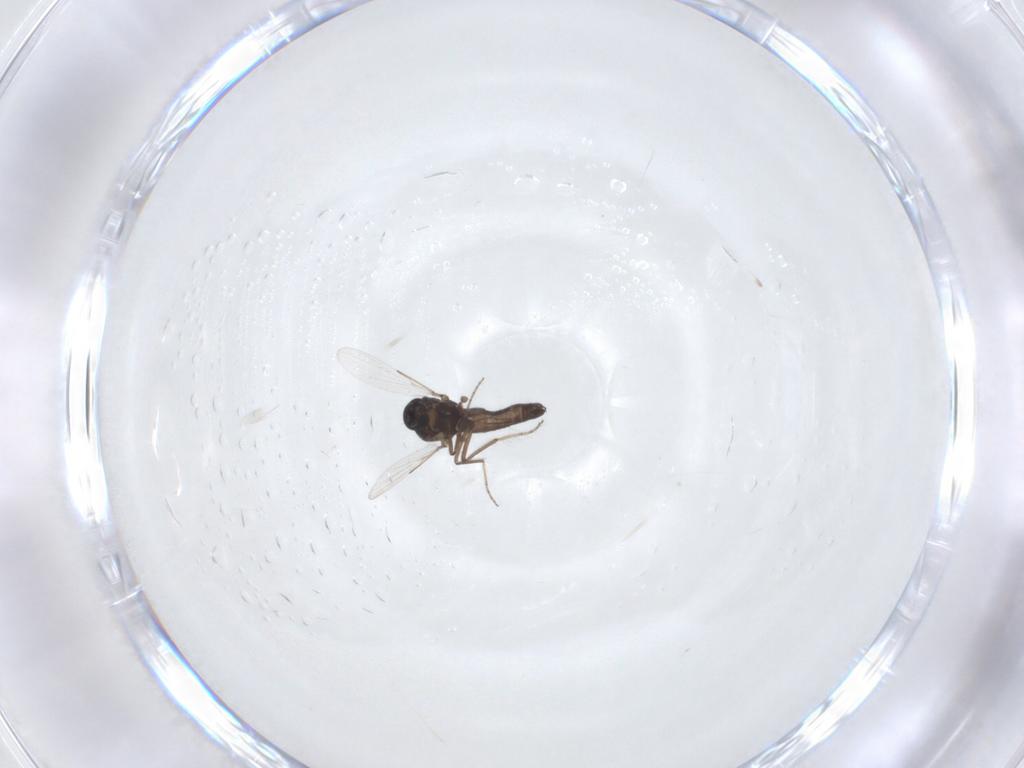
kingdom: Animalia
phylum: Arthropoda
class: Insecta
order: Diptera
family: Ceratopogonidae
